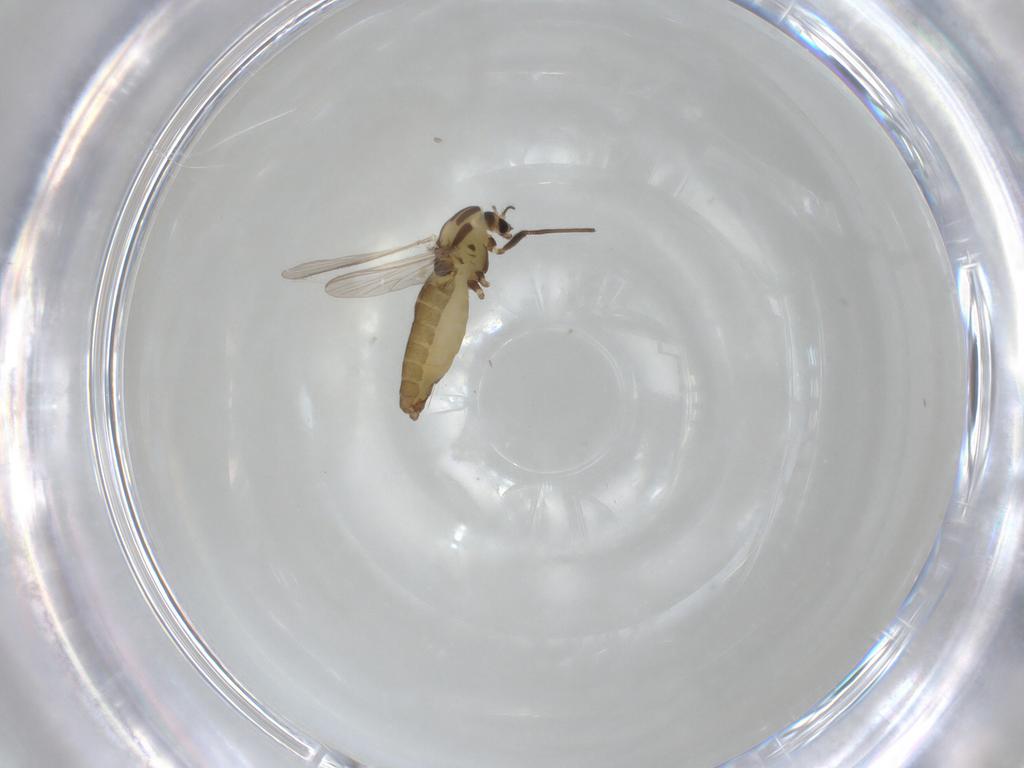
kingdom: Animalia
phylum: Arthropoda
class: Insecta
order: Diptera
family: Chironomidae
